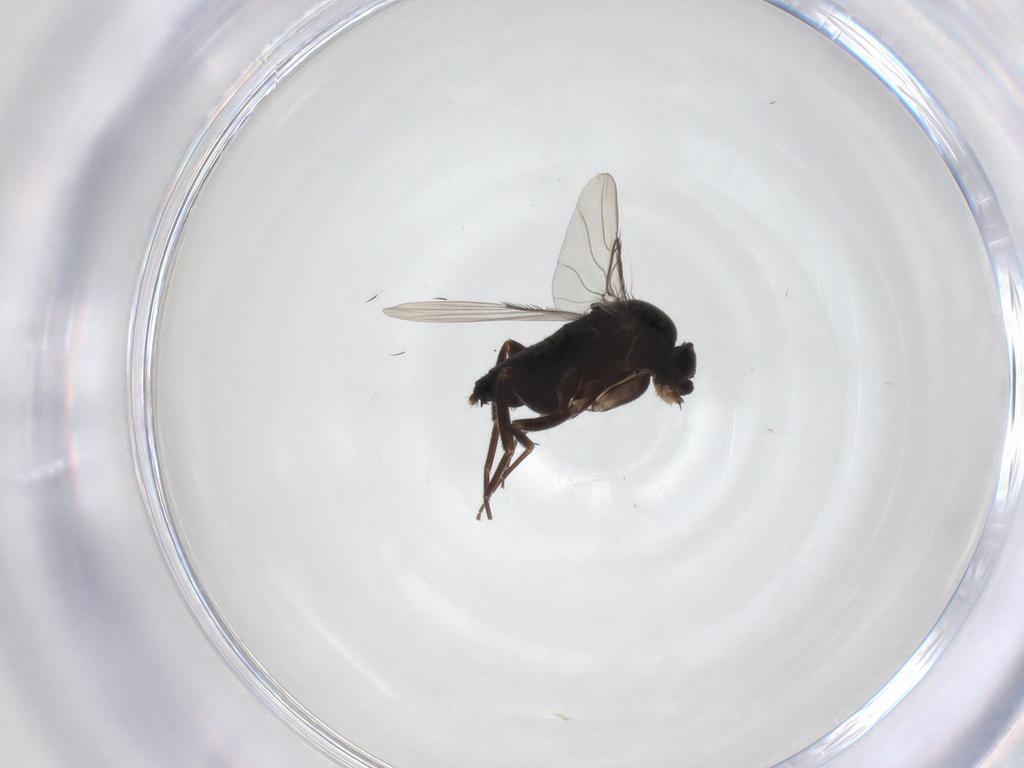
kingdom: Animalia
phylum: Arthropoda
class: Insecta
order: Diptera
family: Phoridae
